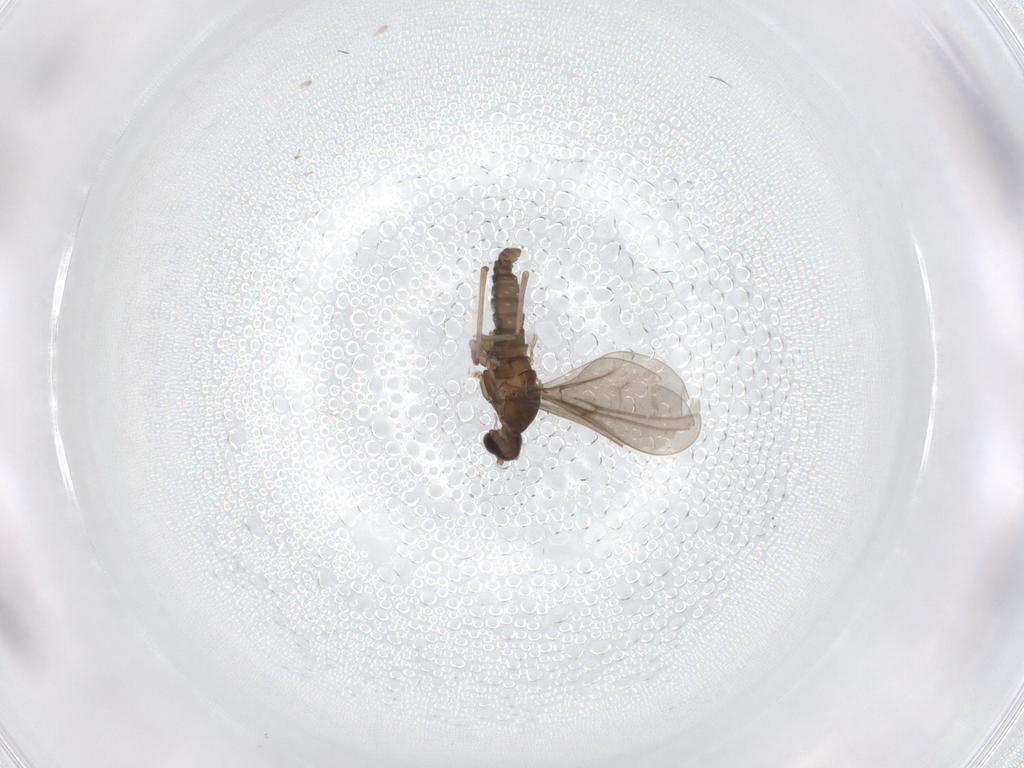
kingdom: Animalia
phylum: Arthropoda
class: Insecta
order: Diptera
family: Cecidomyiidae
